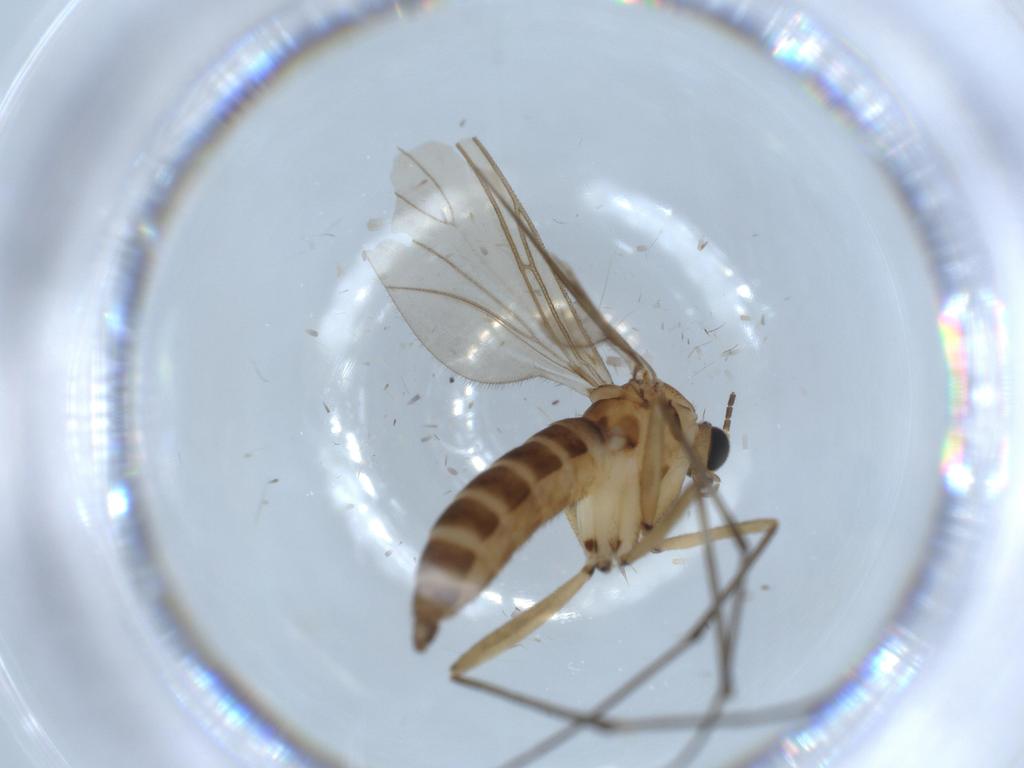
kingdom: Animalia
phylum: Arthropoda
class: Insecta
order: Diptera
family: Sciaridae
